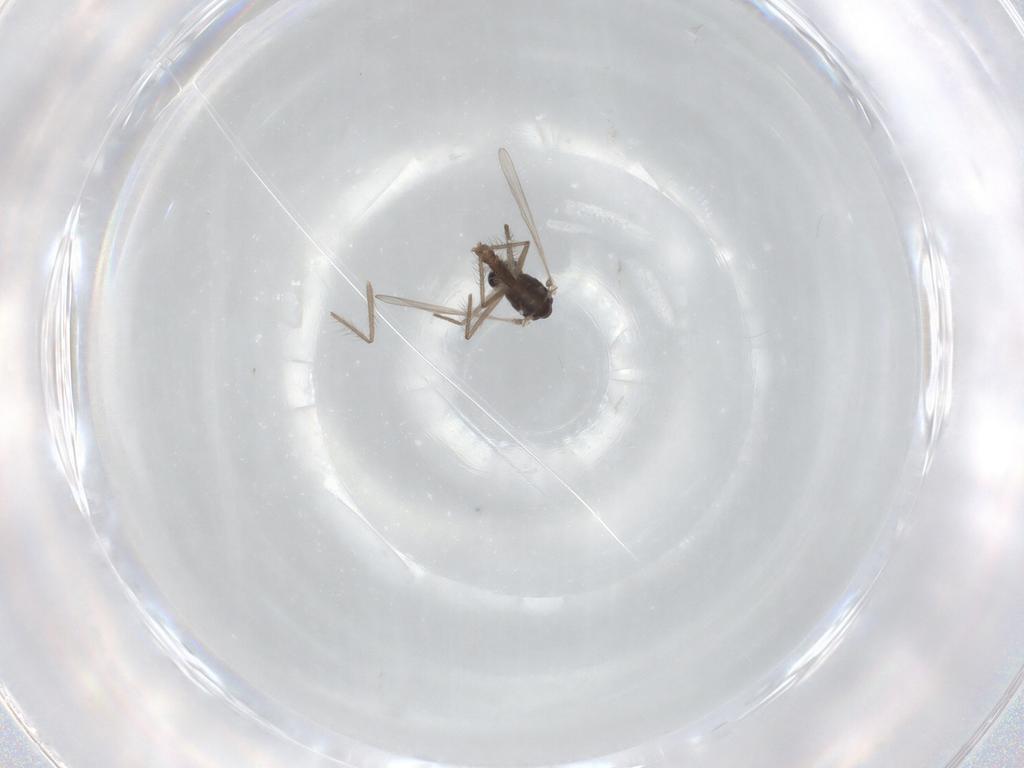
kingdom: Animalia
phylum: Arthropoda
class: Insecta
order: Diptera
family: Chironomidae
